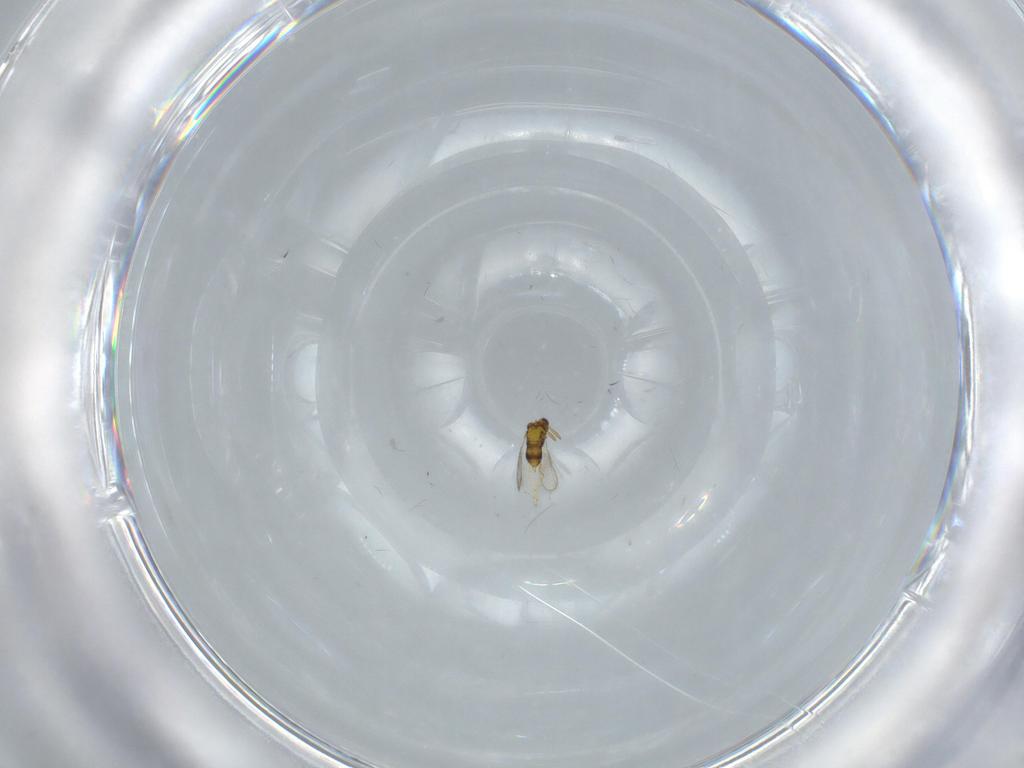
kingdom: Animalia
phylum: Arthropoda
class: Insecta
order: Hymenoptera
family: Aphelinidae
